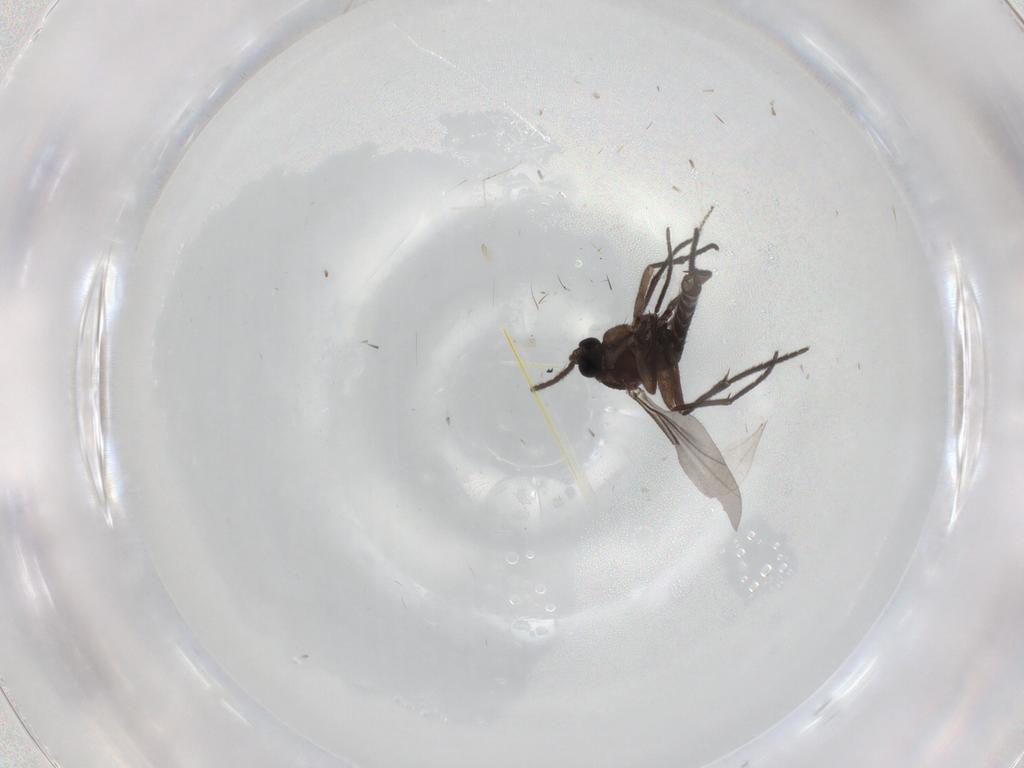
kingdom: Animalia
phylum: Arthropoda
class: Insecta
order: Diptera
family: Sciaridae
